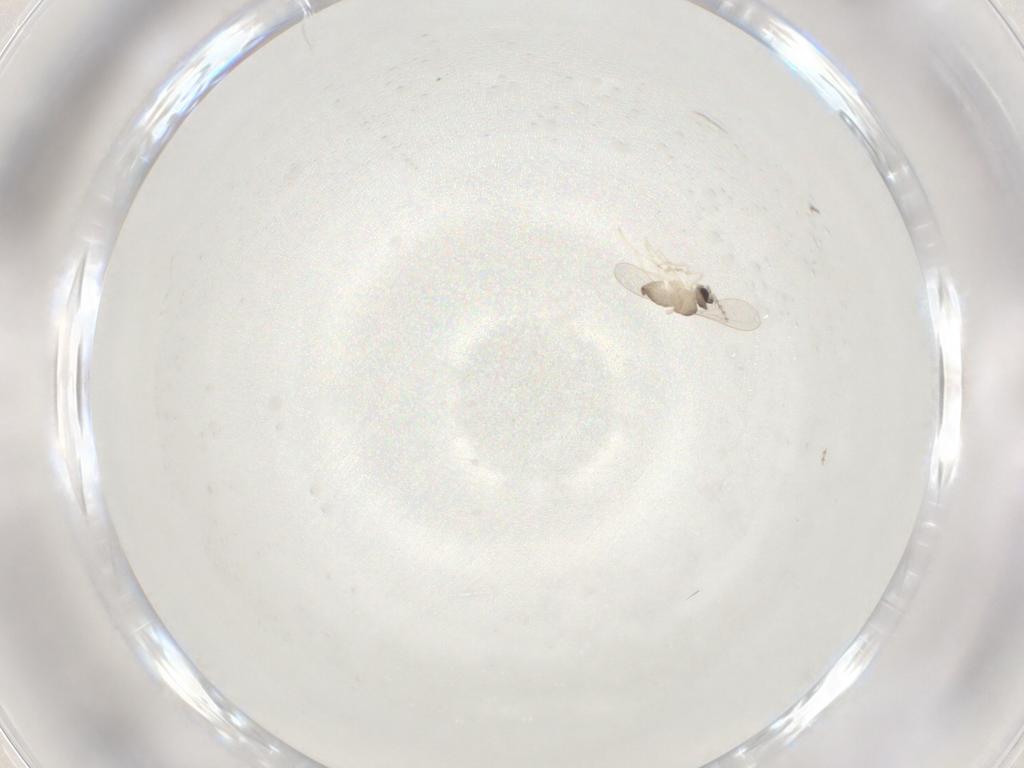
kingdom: Animalia
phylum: Arthropoda
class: Insecta
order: Diptera
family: Cecidomyiidae
